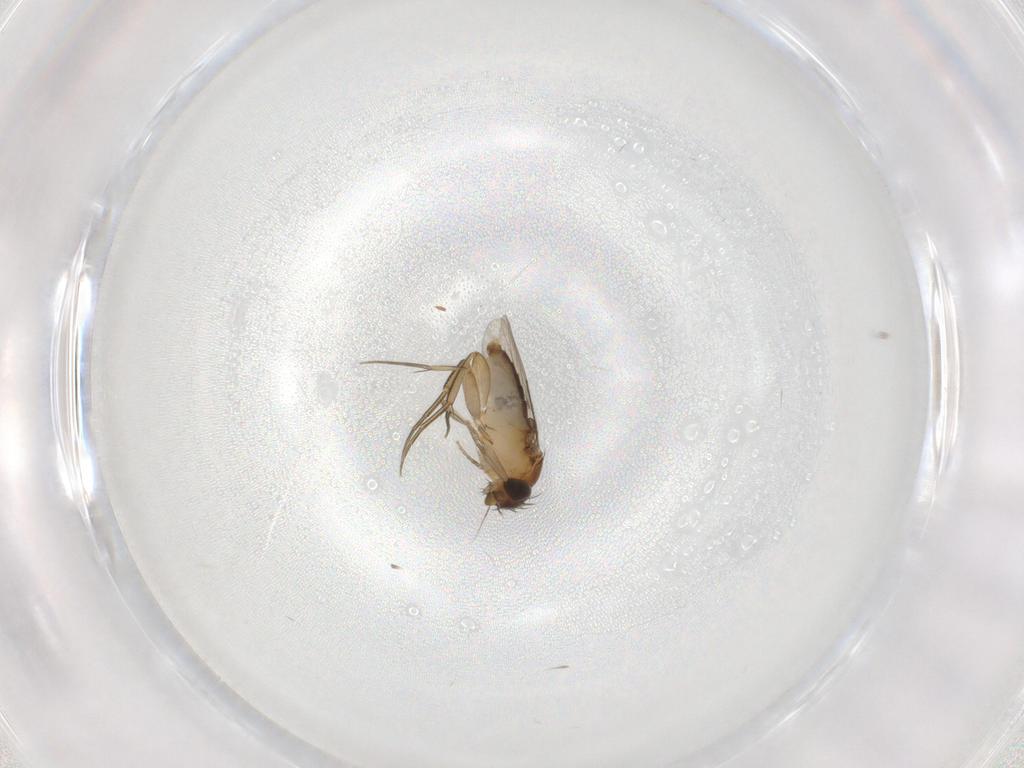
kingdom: Animalia
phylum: Arthropoda
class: Insecta
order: Diptera
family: Phoridae
